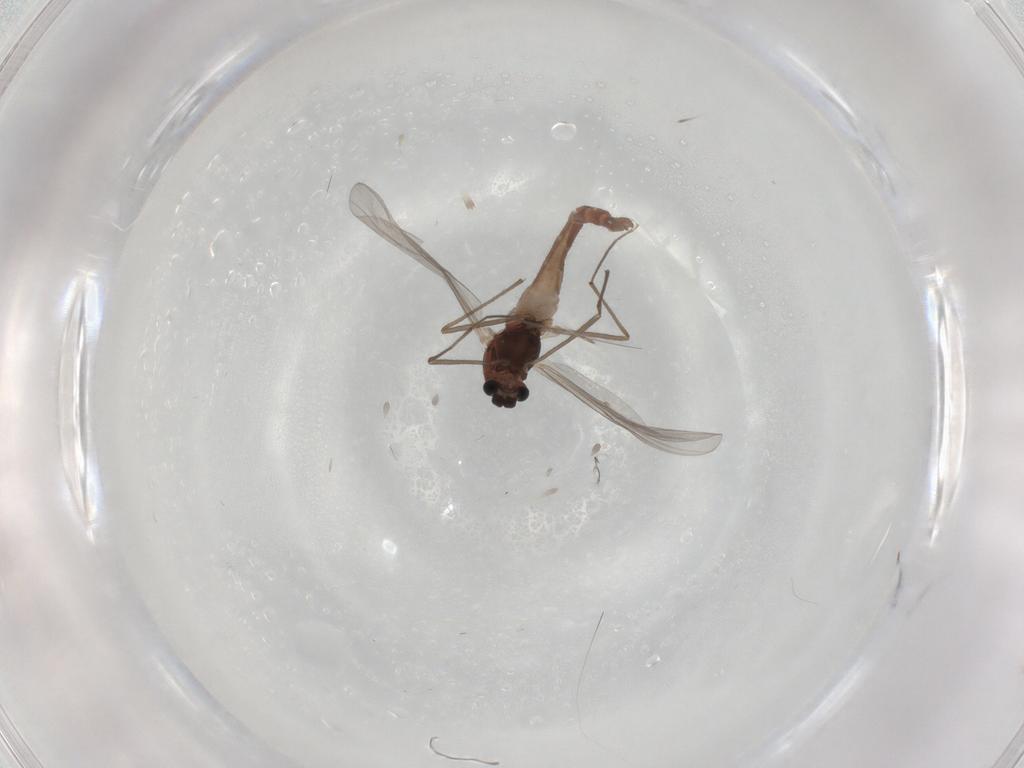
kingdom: Animalia
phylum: Arthropoda
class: Insecta
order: Diptera
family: Chironomidae
